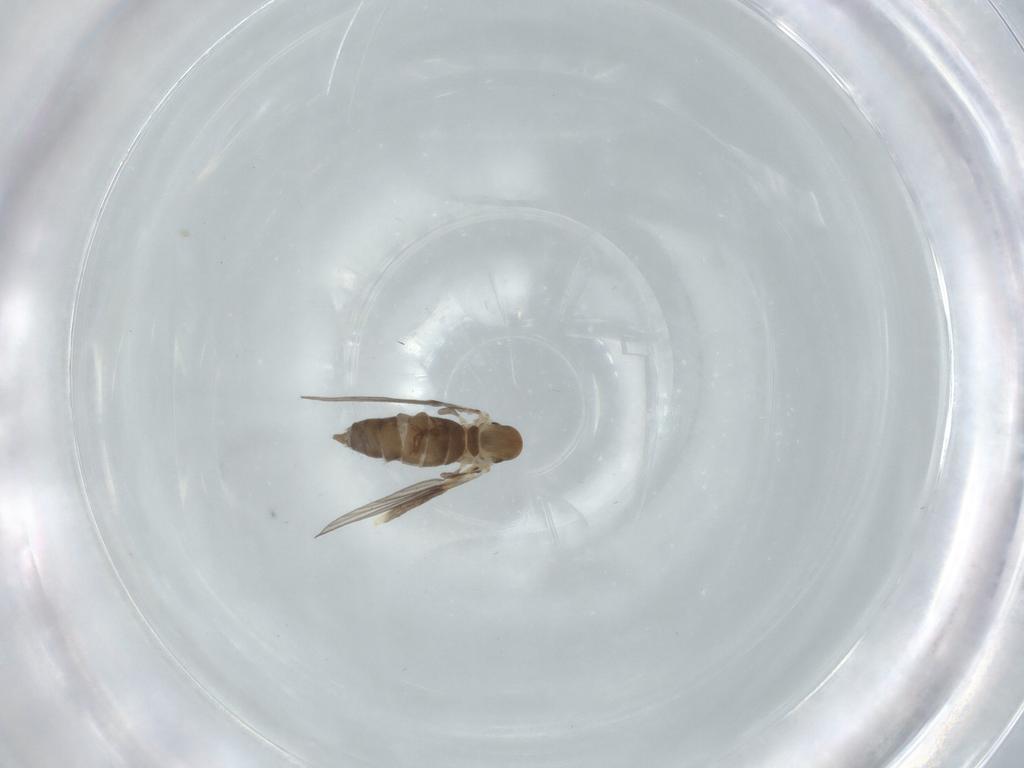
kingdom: Animalia
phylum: Arthropoda
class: Insecta
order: Diptera
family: Psychodidae
